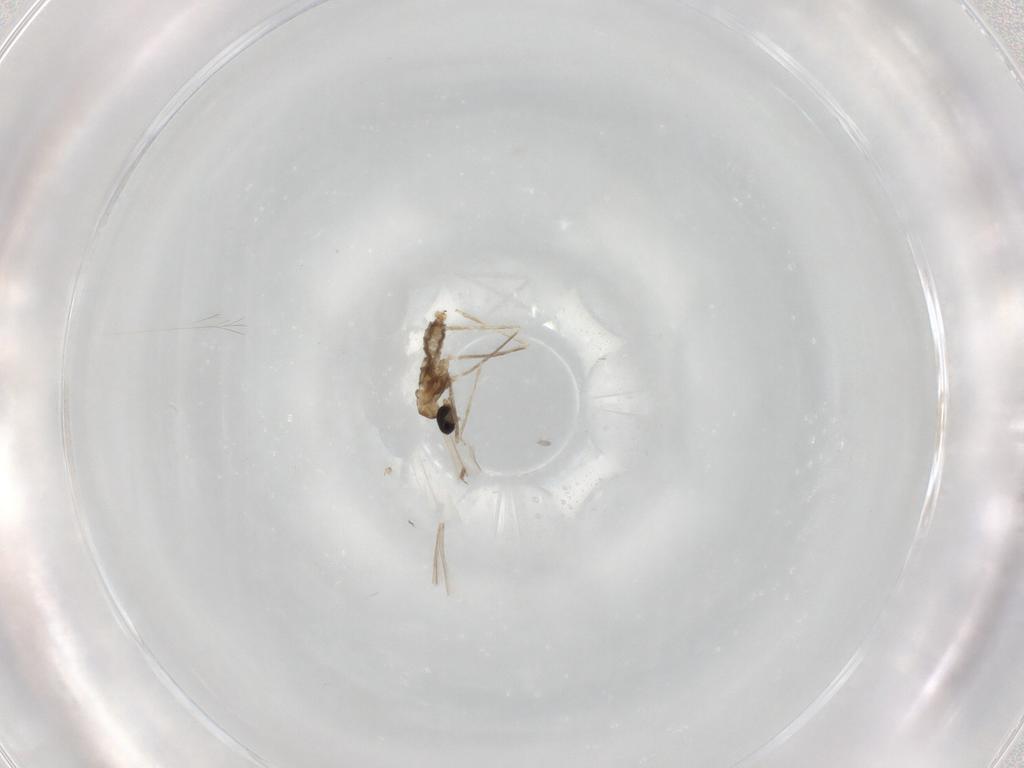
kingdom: Animalia
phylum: Arthropoda
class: Insecta
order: Diptera
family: Cecidomyiidae
